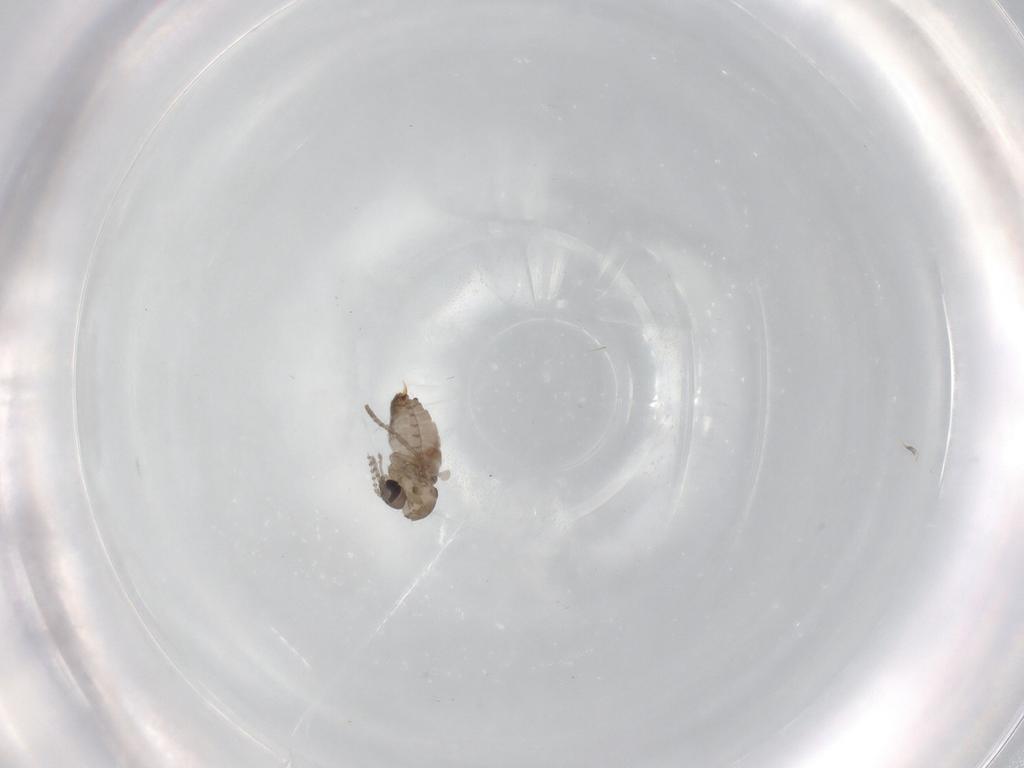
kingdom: Animalia
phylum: Arthropoda
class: Insecta
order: Diptera
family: Psychodidae
